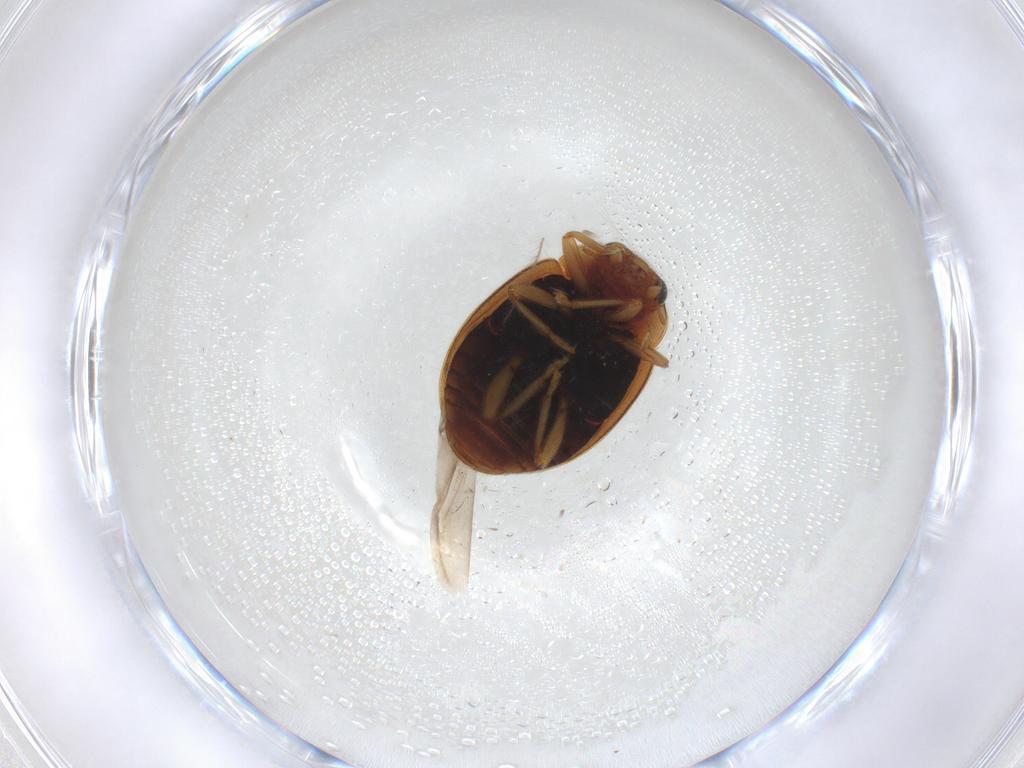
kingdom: Animalia
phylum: Arthropoda
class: Insecta
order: Coleoptera
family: Coccinellidae
